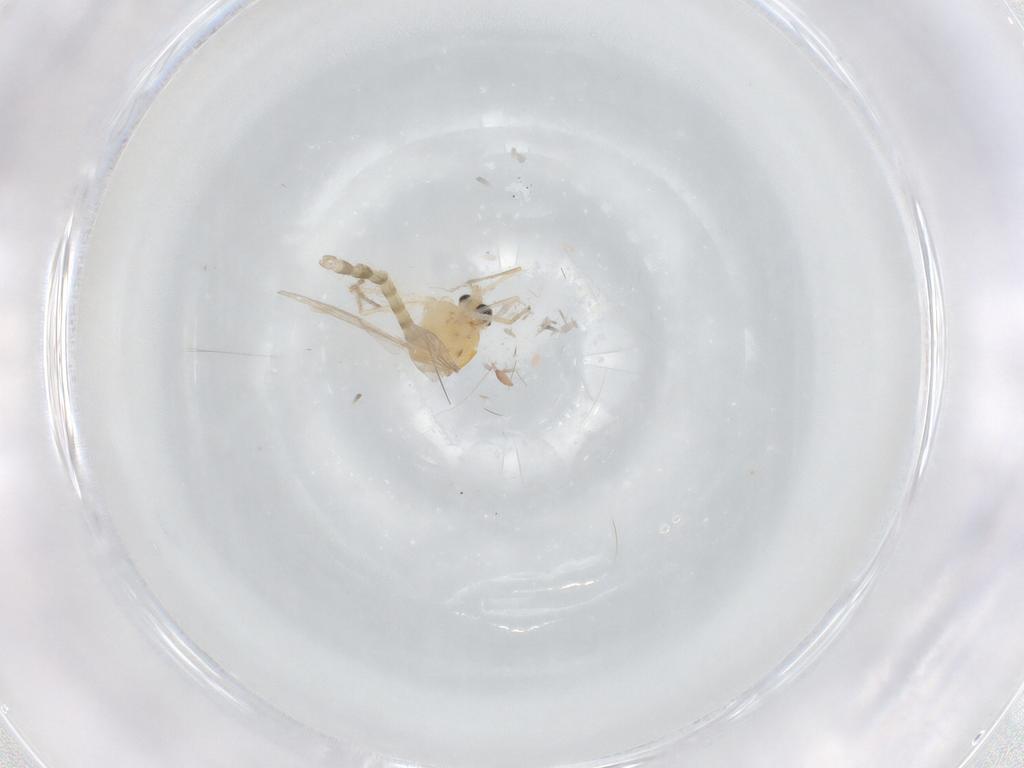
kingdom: Animalia
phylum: Arthropoda
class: Insecta
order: Diptera
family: Chironomidae
